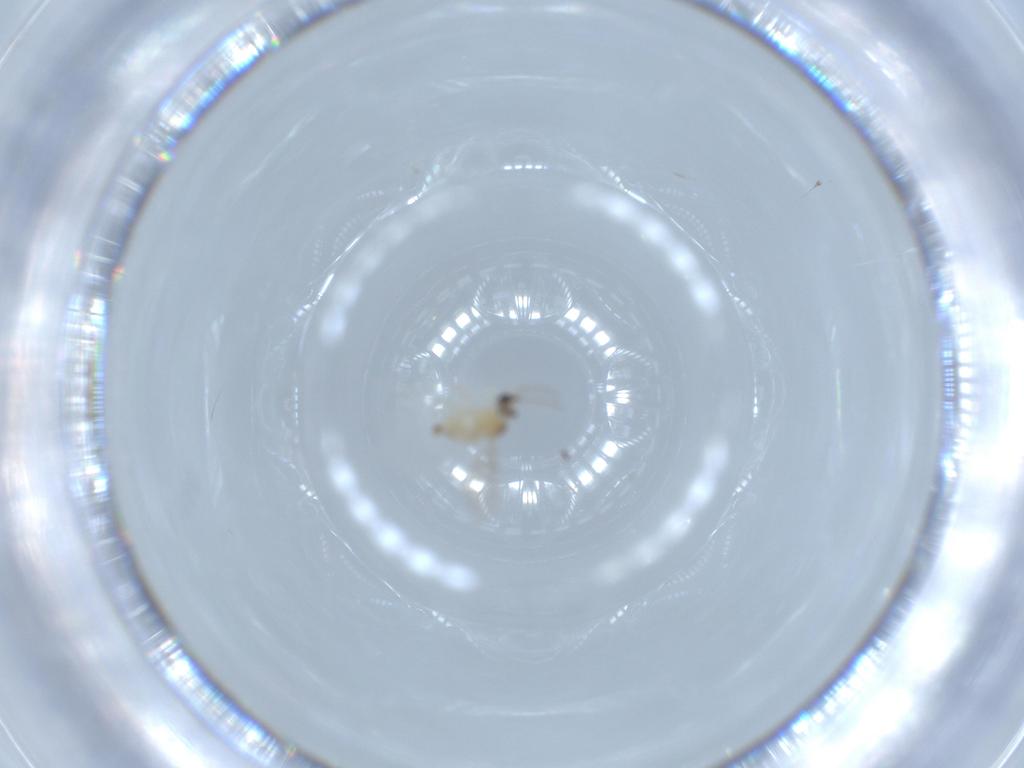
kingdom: Animalia
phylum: Arthropoda
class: Insecta
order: Diptera
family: Cecidomyiidae
